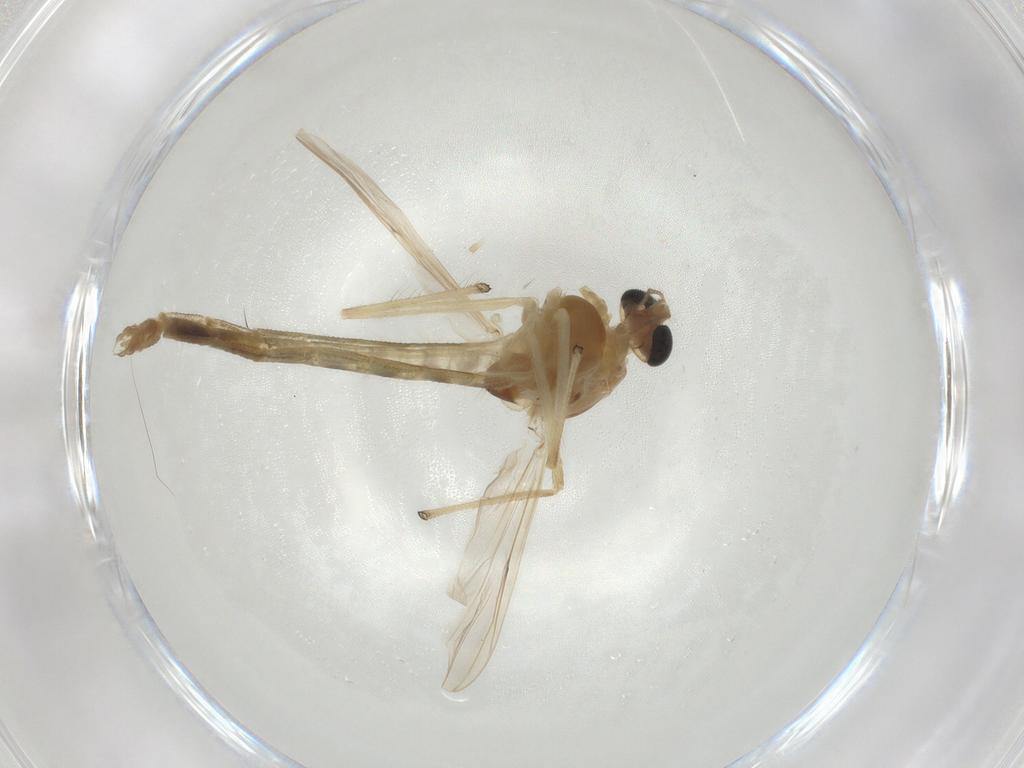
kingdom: Animalia
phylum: Arthropoda
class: Insecta
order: Diptera
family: Chironomidae
